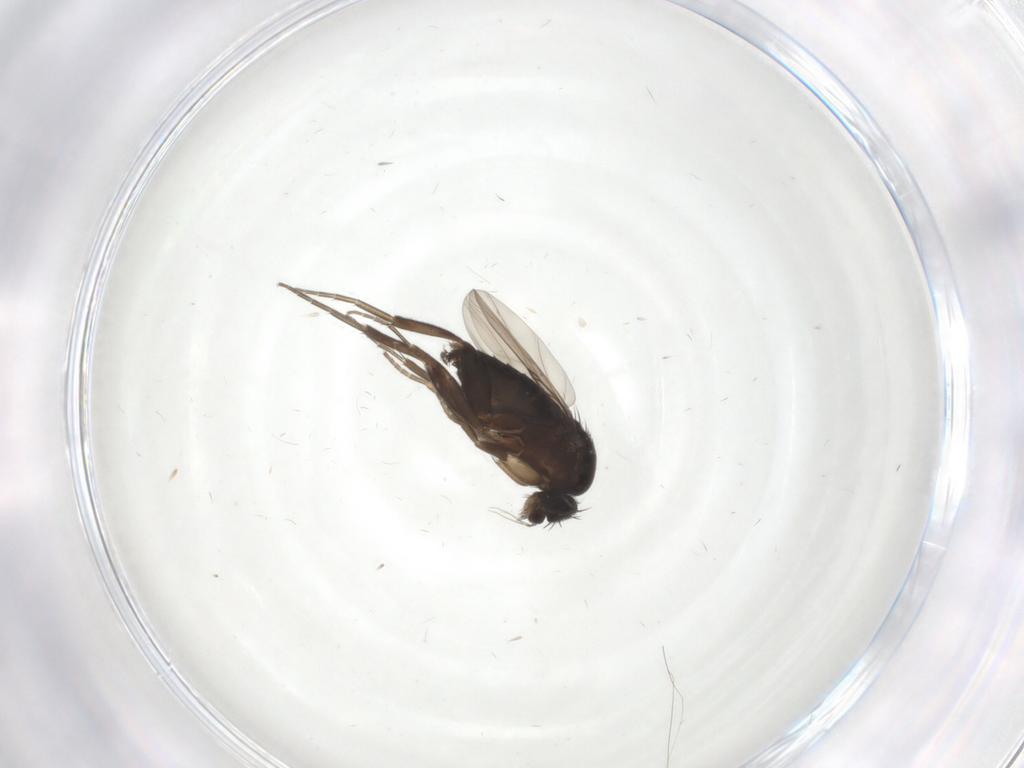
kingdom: Animalia
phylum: Arthropoda
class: Insecta
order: Diptera
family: Phoridae
